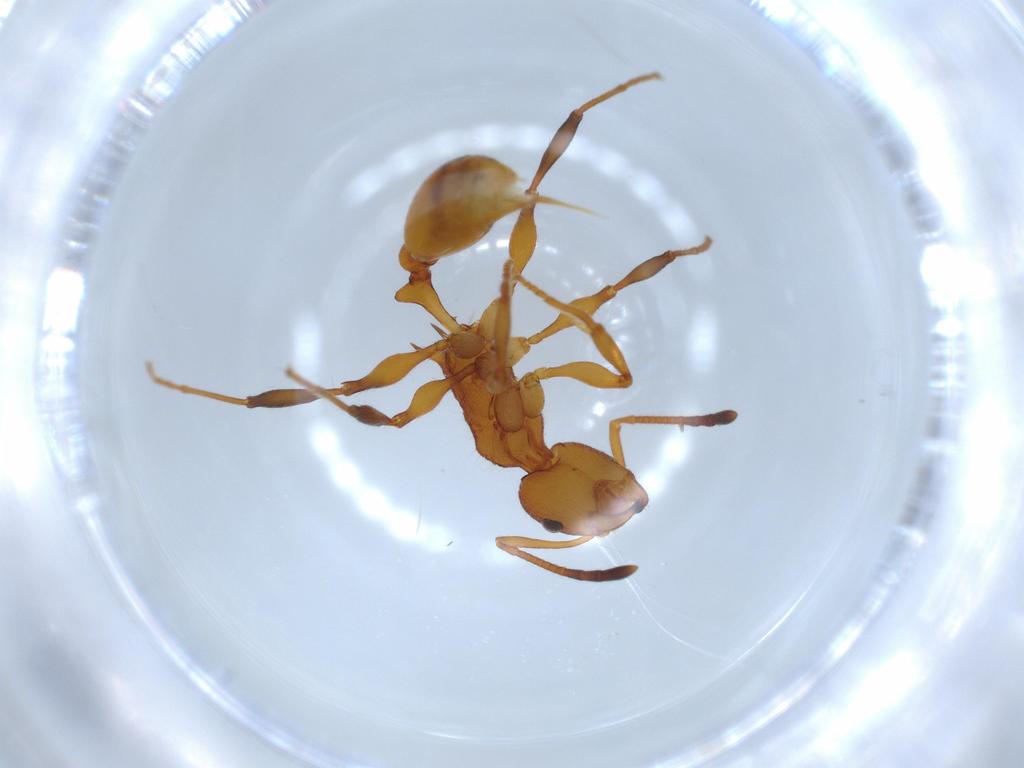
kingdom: Animalia
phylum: Arthropoda
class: Insecta
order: Hymenoptera
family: Formicidae
